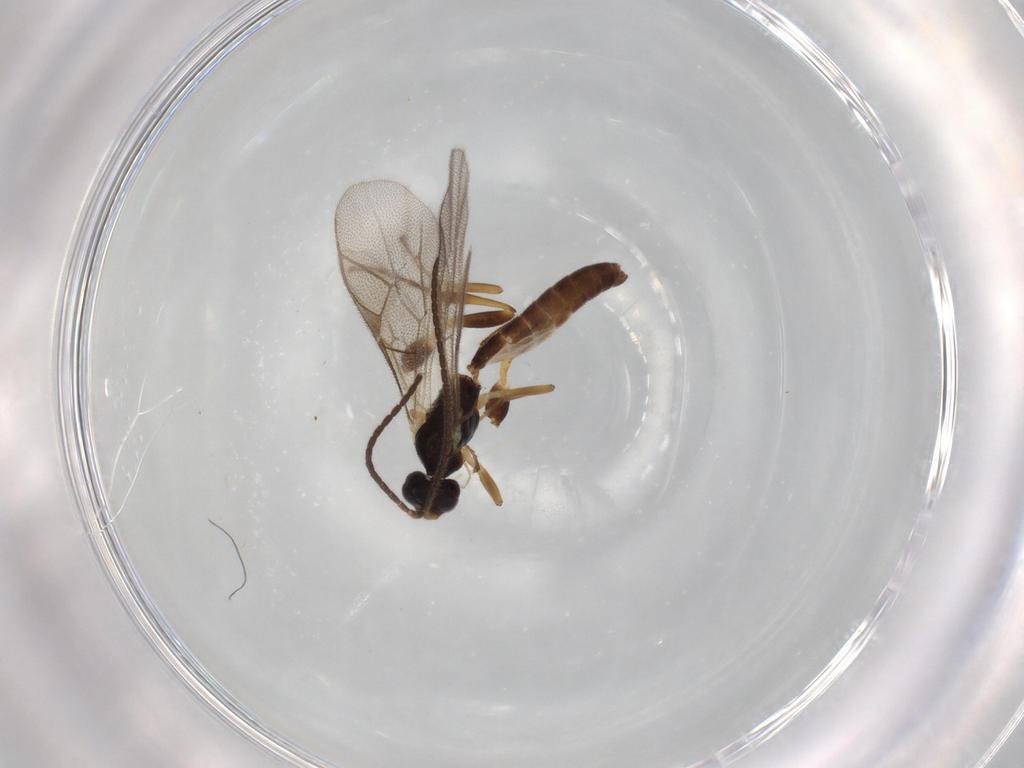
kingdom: Animalia
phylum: Arthropoda
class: Insecta
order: Hymenoptera
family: Ichneumonidae
